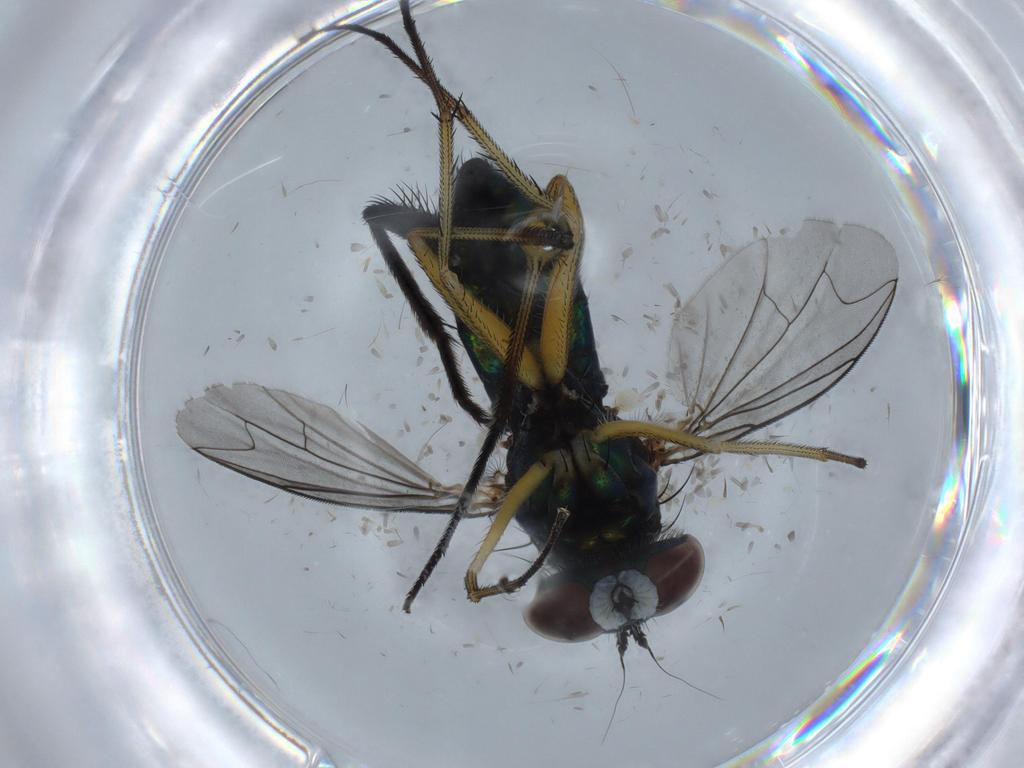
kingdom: Animalia
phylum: Arthropoda
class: Insecta
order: Diptera
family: Dolichopodidae
